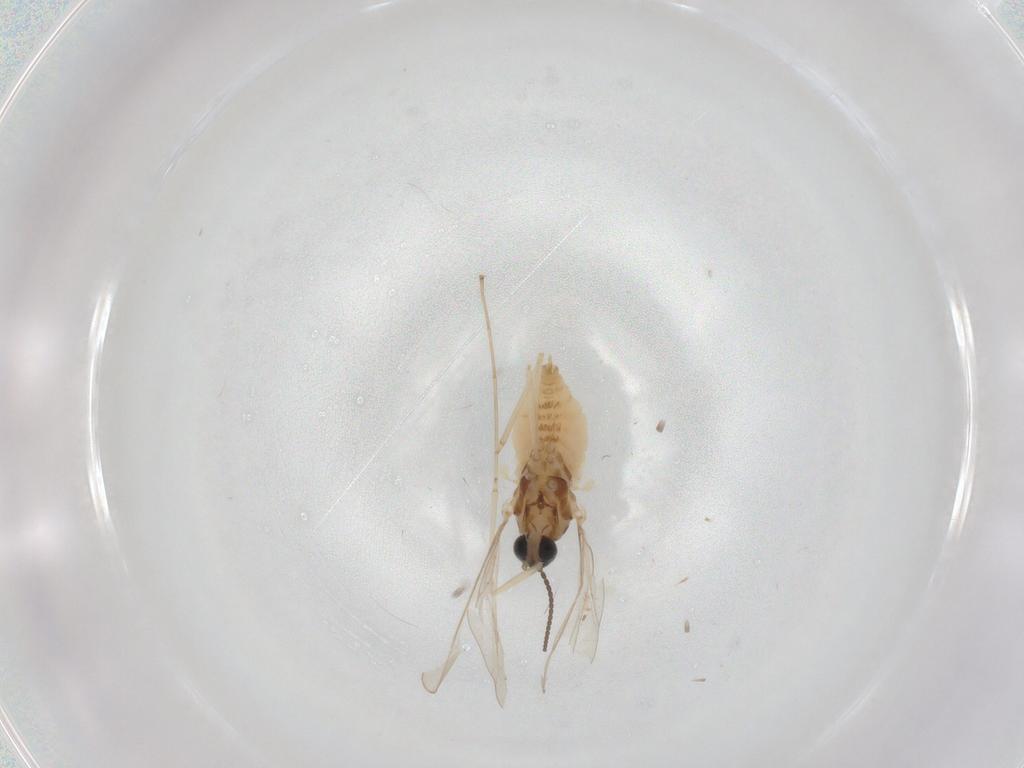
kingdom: Animalia
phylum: Arthropoda
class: Insecta
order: Diptera
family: Cecidomyiidae
